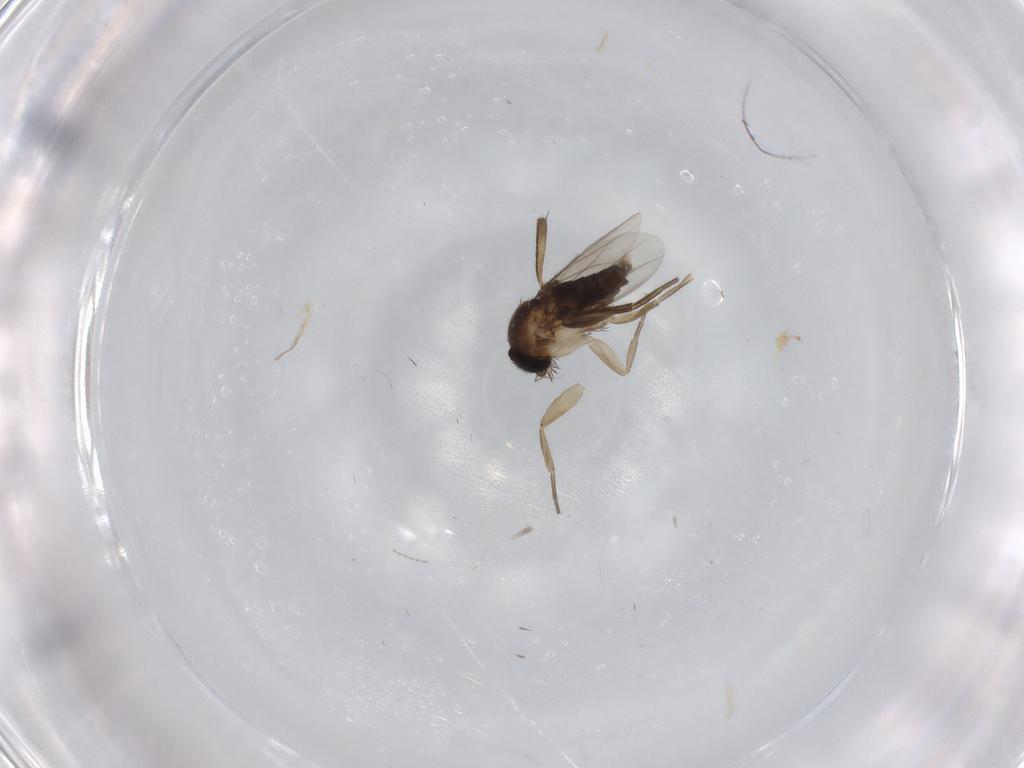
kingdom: Animalia
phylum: Arthropoda
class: Insecta
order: Diptera
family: Phoridae
